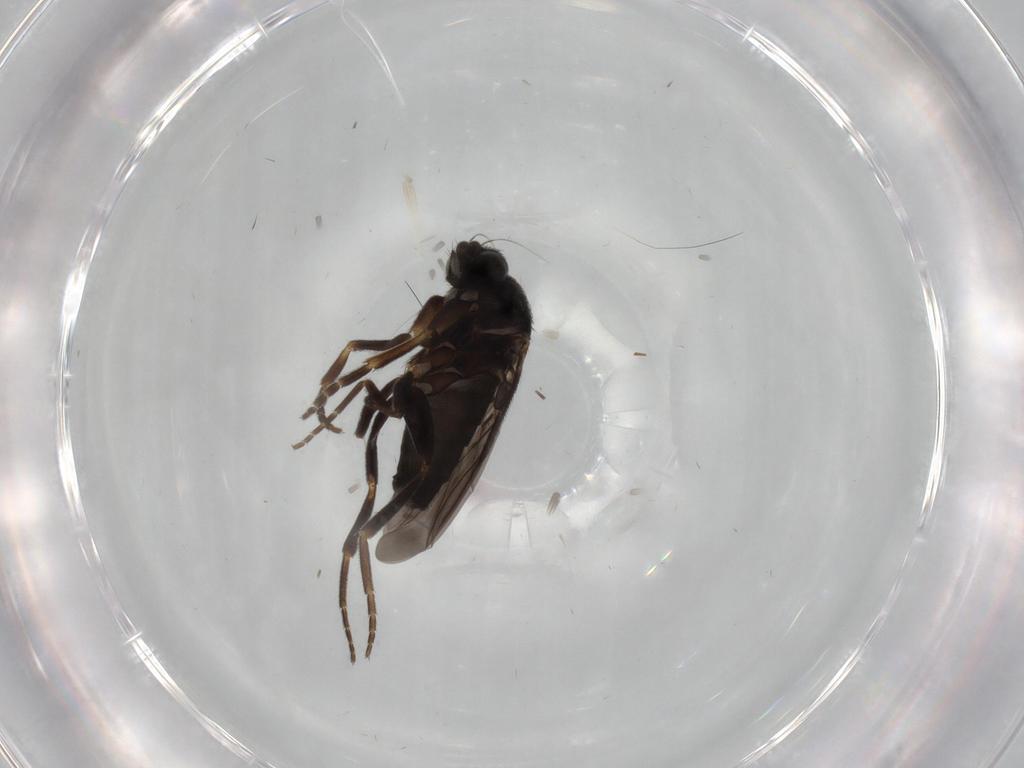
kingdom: Animalia
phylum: Arthropoda
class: Insecta
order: Diptera
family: Phoridae
